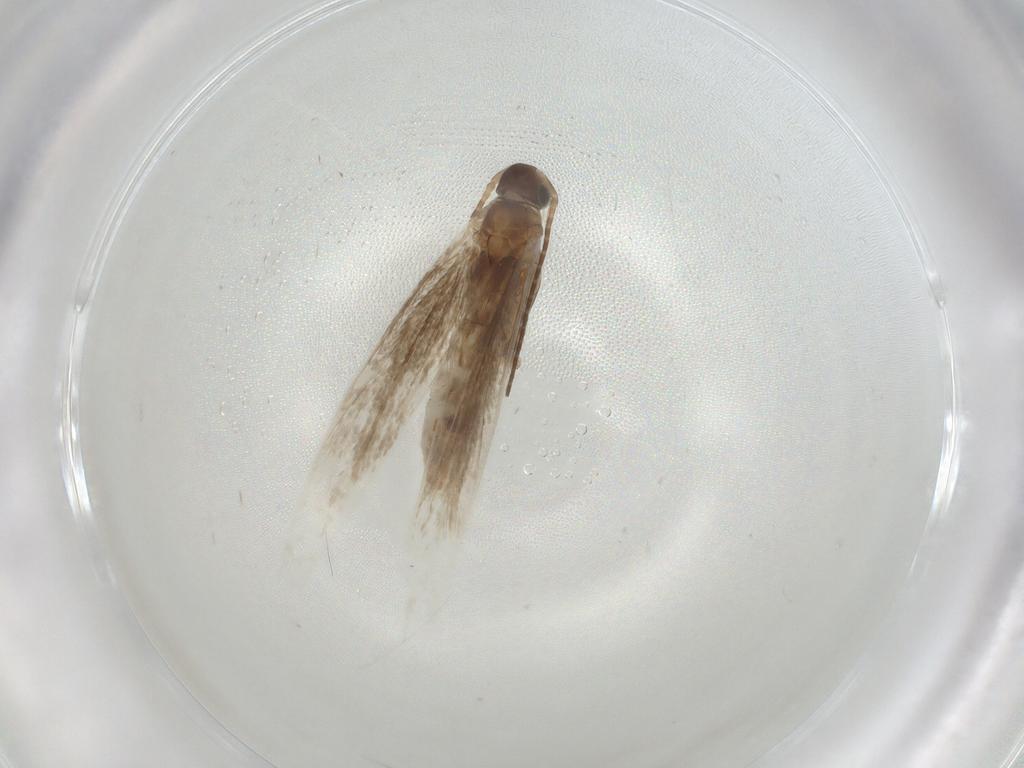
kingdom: Animalia
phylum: Arthropoda
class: Insecta
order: Lepidoptera
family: Coleophoridae
